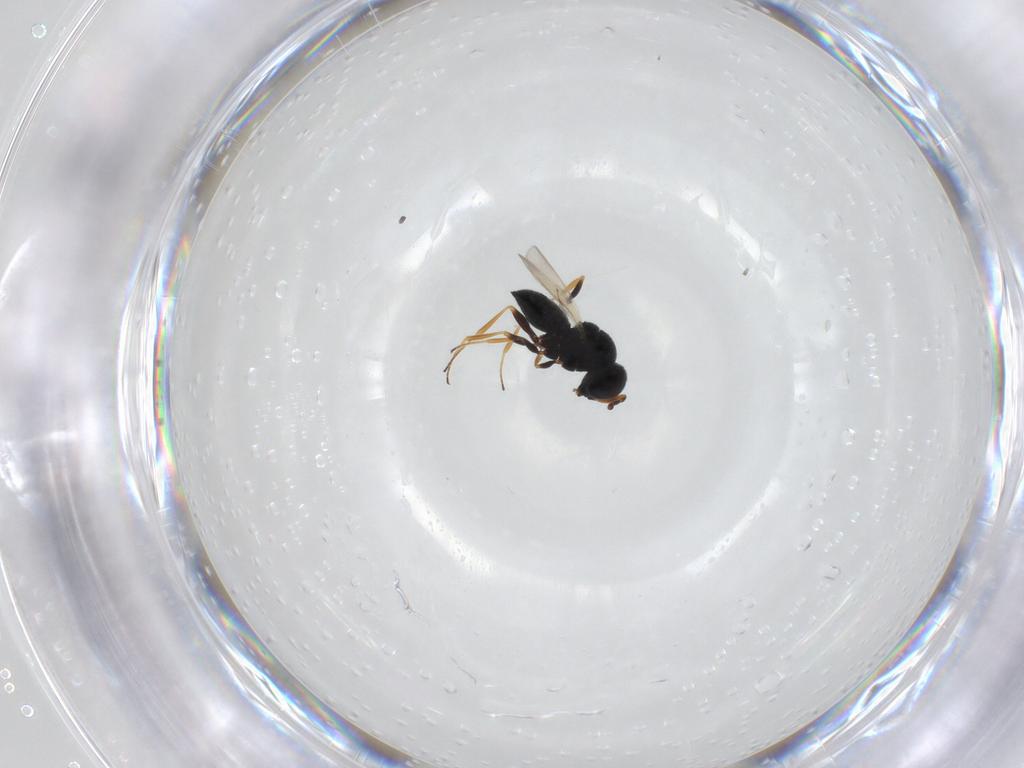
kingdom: Animalia
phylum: Arthropoda
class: Insecta
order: Hymenoptera
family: Scelionidae
